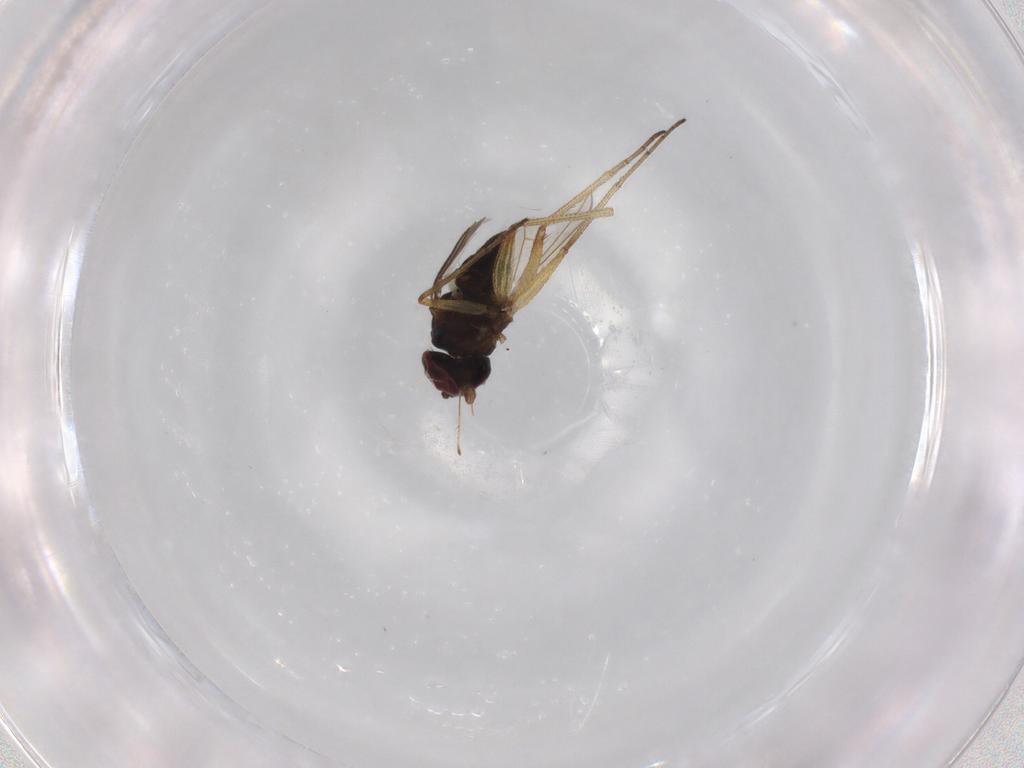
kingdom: Animalia
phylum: Arthropoda
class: Insecta
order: Diptera
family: Dolichopodidae
